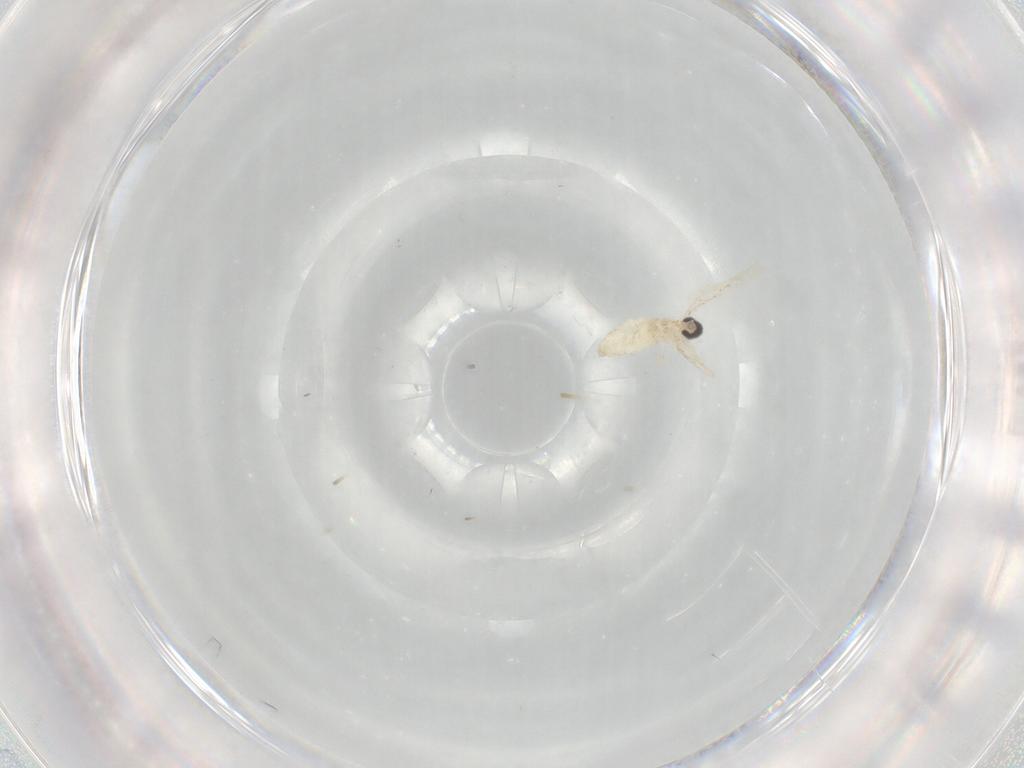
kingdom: Animalia
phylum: Arthropoda
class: Insecta
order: Diptera
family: Cecidomyiidae
